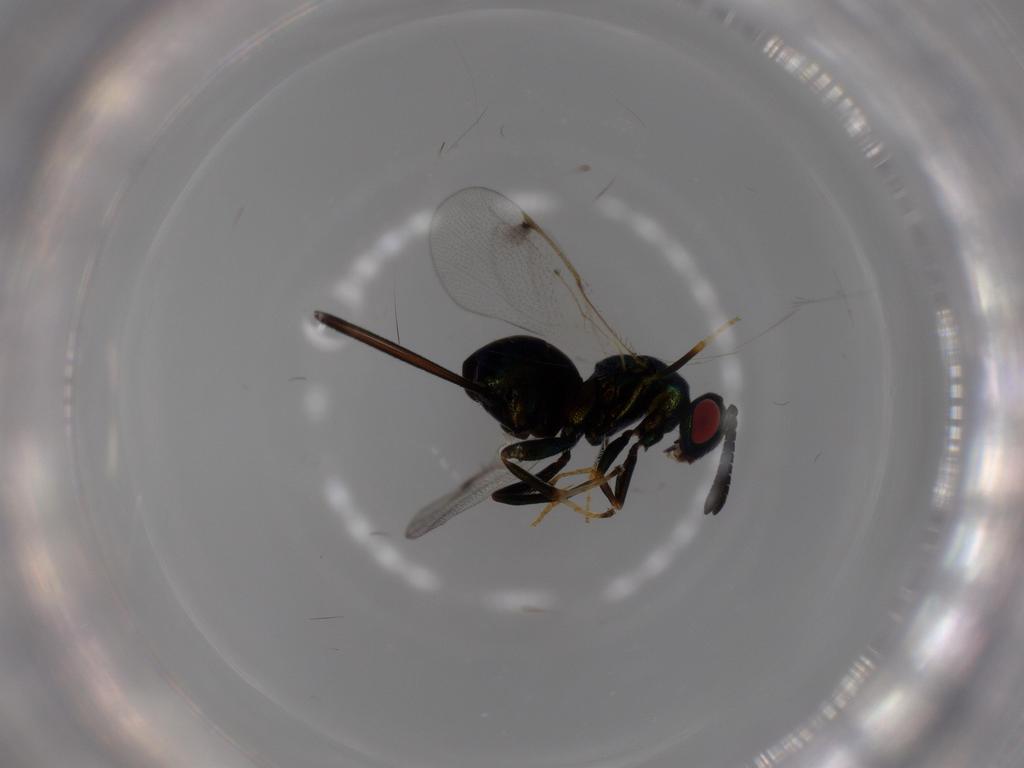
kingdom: Animalia
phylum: Arthropoda
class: Insecta
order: Hymenoptera
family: Torymidae
